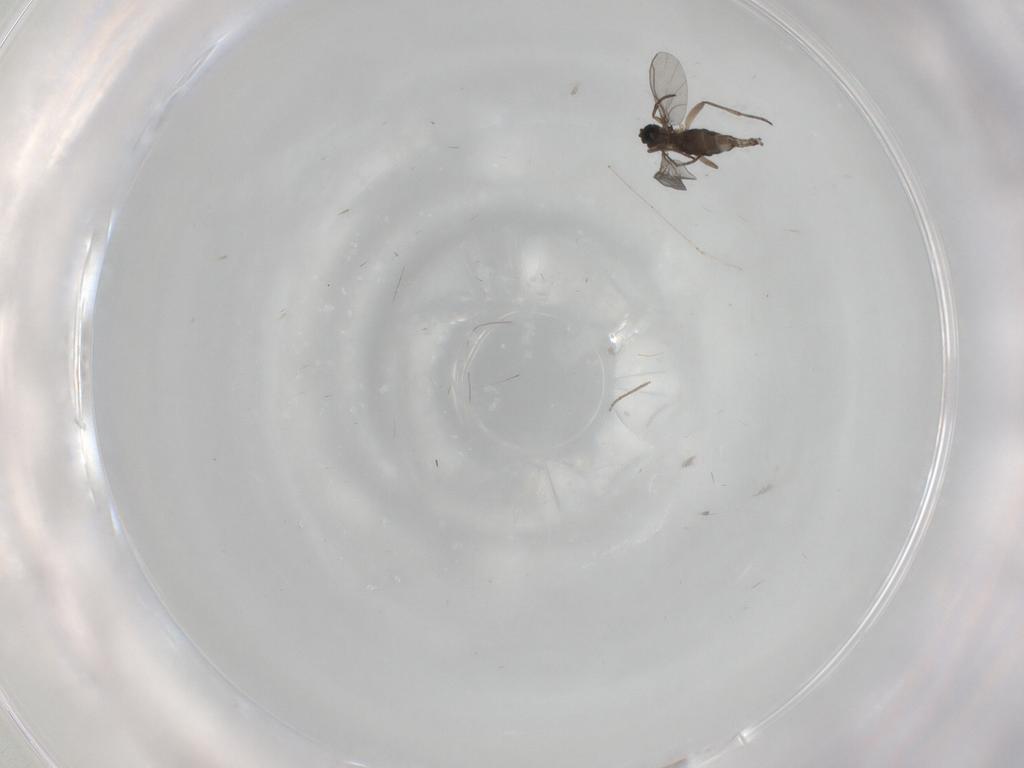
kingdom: Animalia
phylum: Arthropoda
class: Insecta
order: Diptera
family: Sciaridae
